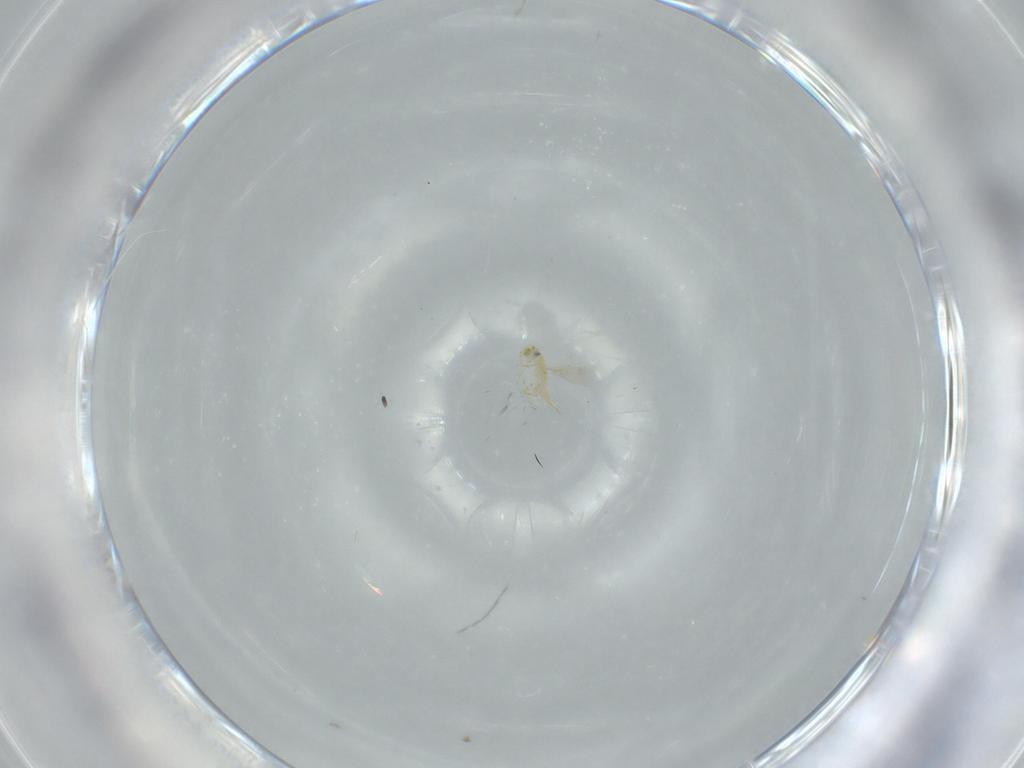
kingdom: Animalia
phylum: Arthropoda
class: Insecta
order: Hymenoptera
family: Aphelinidae
